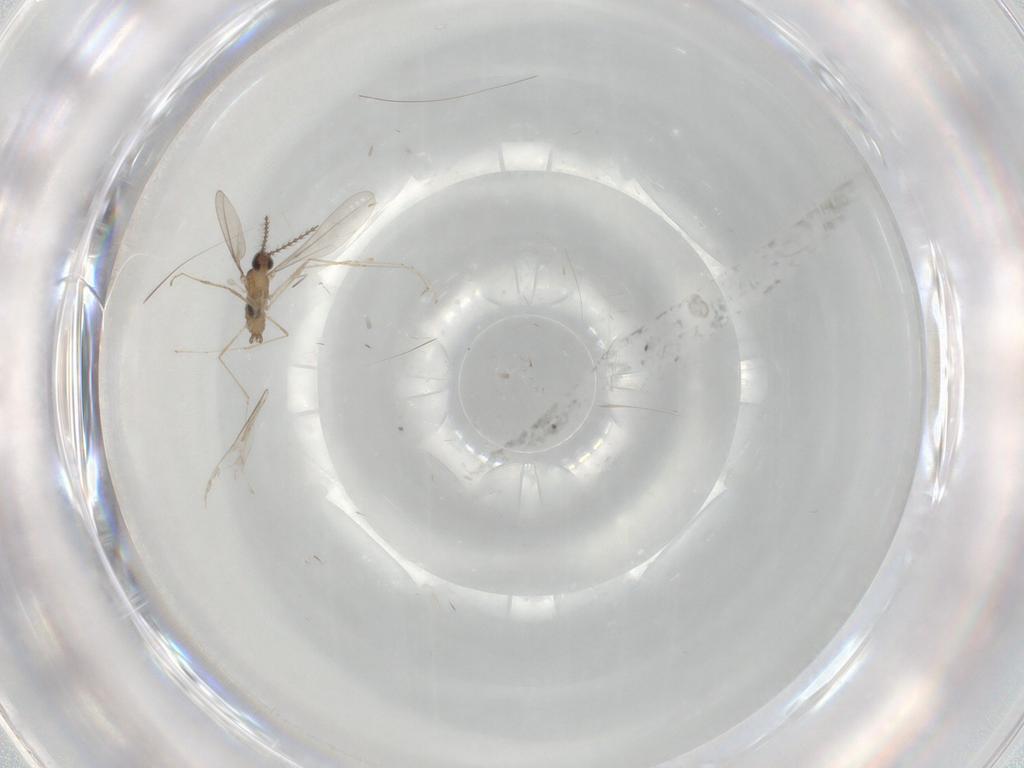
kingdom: Animalia
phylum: Arthropoda
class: Insecta
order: Diptera
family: Cecidomyiidae
